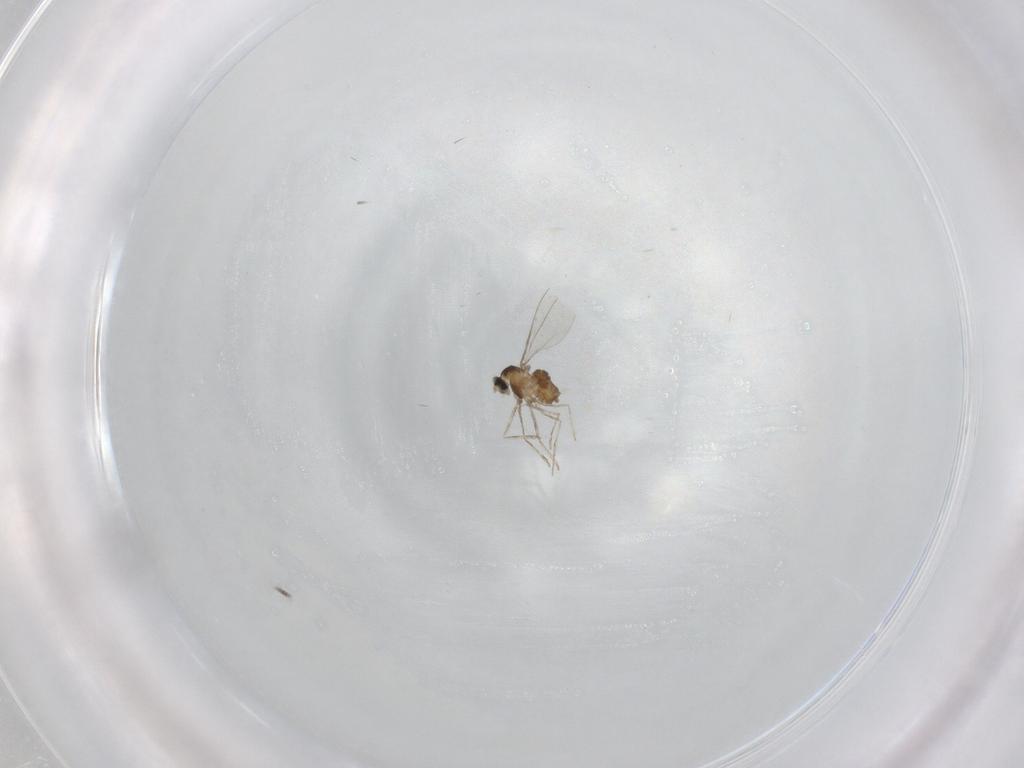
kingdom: Animalia
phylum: Arthropoda
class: Insecta
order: Diptera
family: Cecidomyiidae
